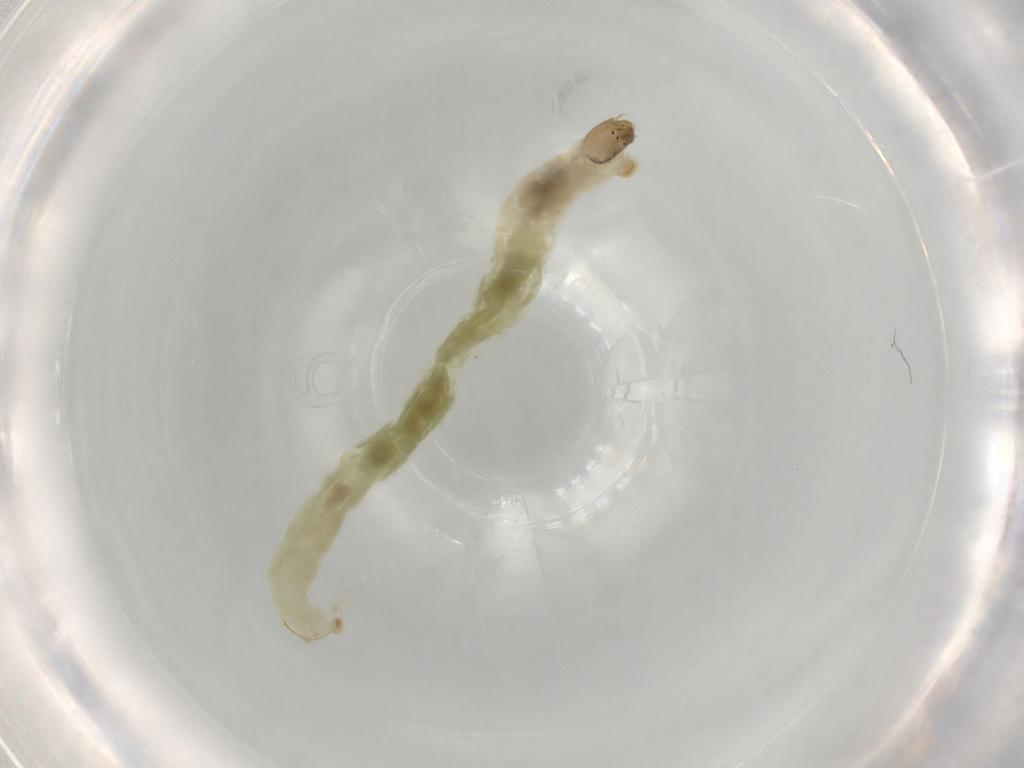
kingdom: Animalia
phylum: Arthropoda
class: Insecta
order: Diptera
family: Chironomidae
